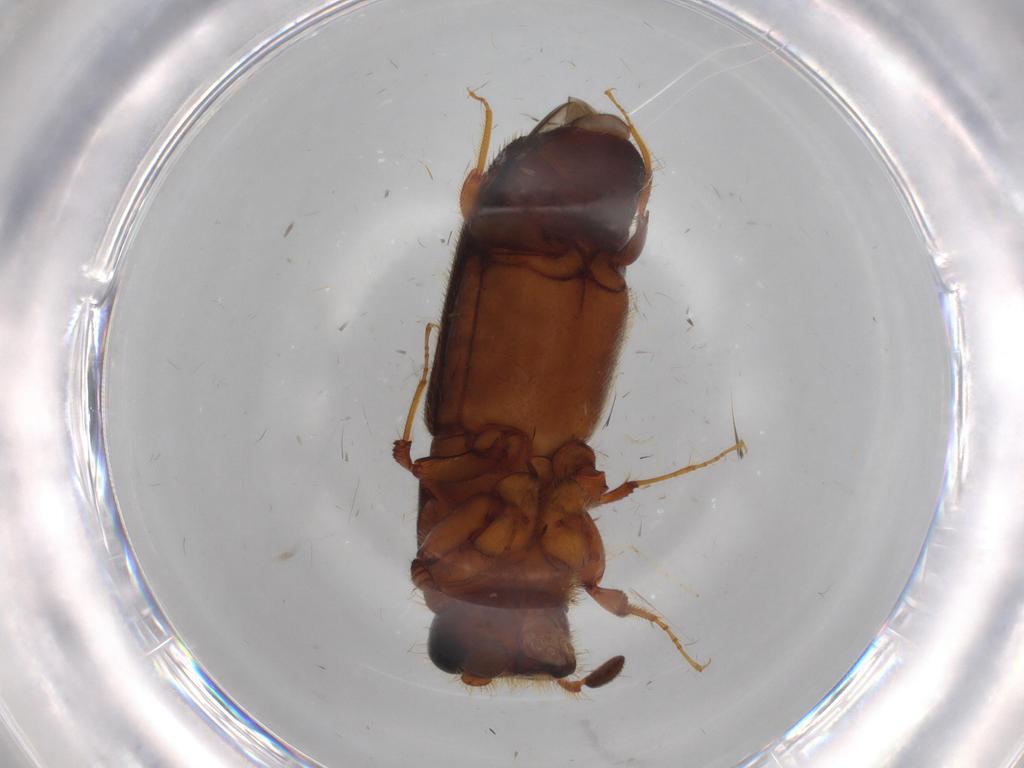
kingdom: Animalia
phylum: Arthropoda
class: Insecta
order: Coleoptera
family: Curculionidae
